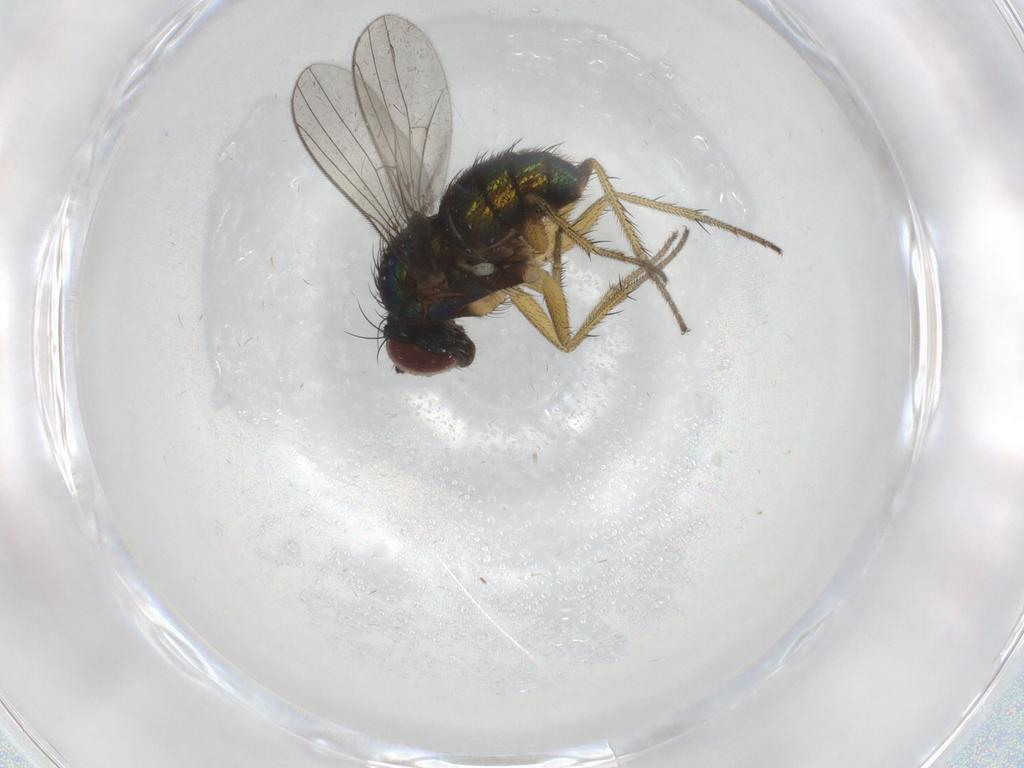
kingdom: Animalia
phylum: Arthropoda
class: Insecta
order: Diptera
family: Dolichopodidae
